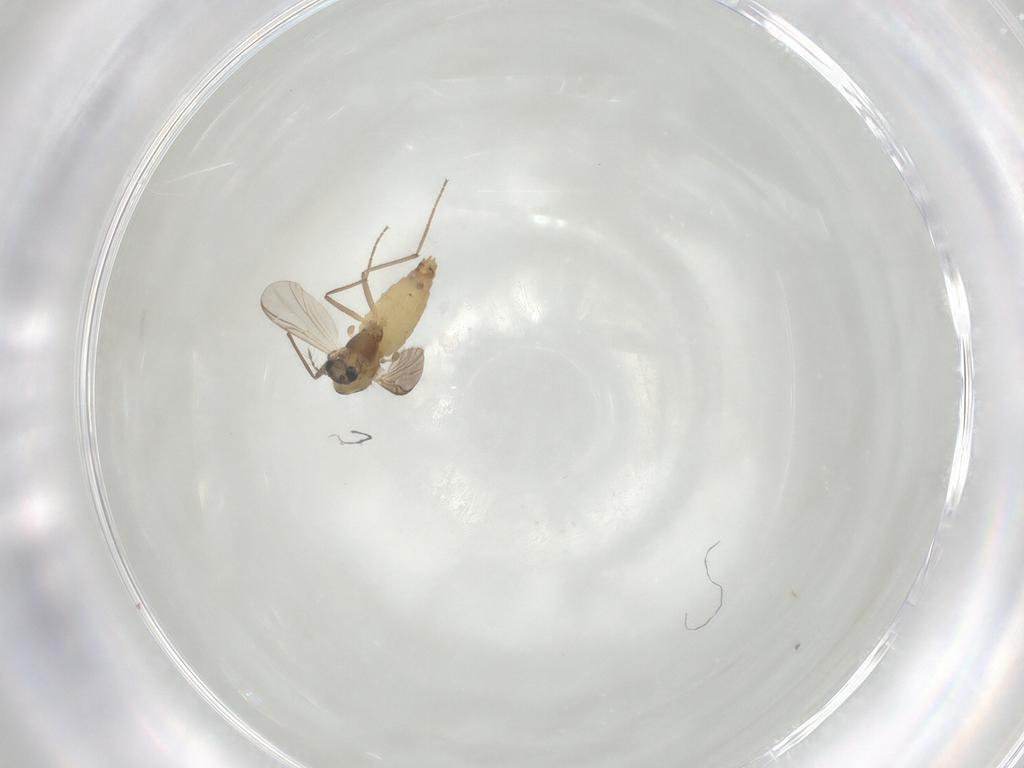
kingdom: Animalia
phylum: Arthropoda
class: Insecta
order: Diptera
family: Chironomidae
